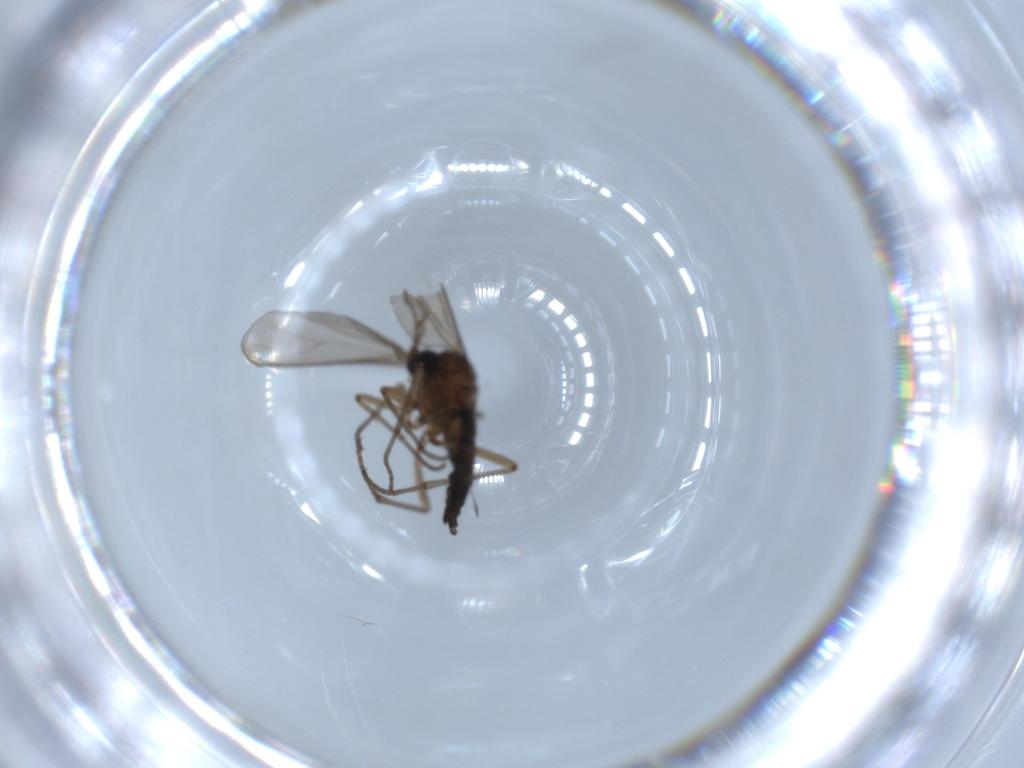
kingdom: Animalia
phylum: Arthropoda
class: Insecta
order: Diptera
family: Sciaridae
